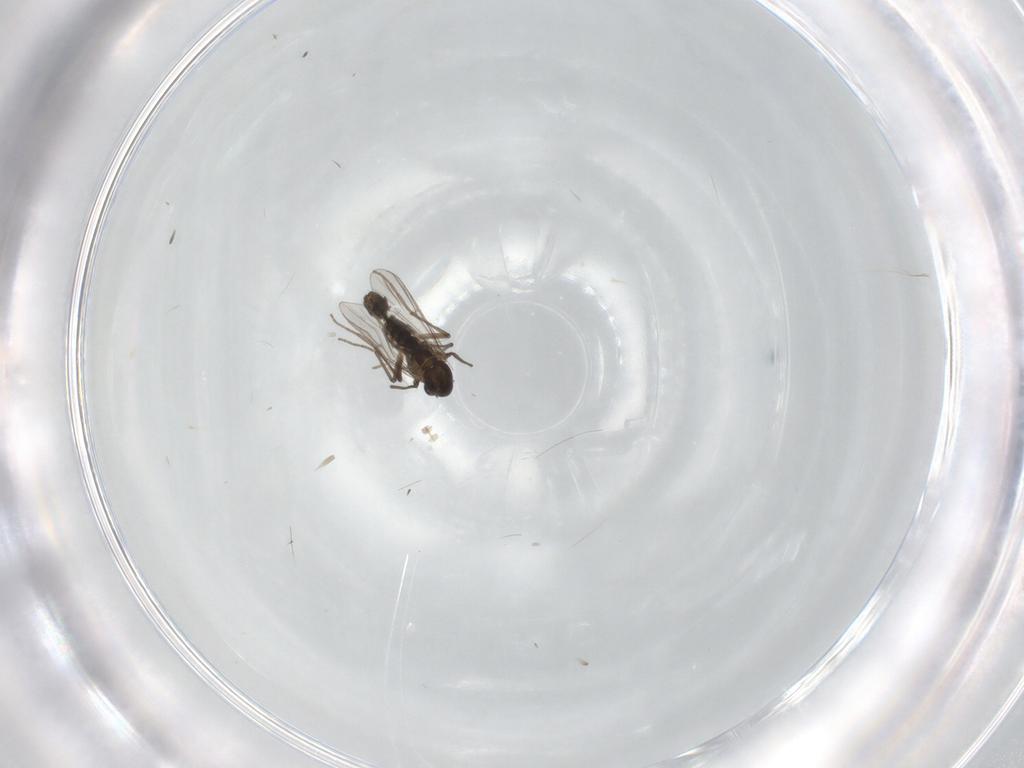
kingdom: Animalia
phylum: Arthropoda
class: Insecta
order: Diptera
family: Chironomidae
